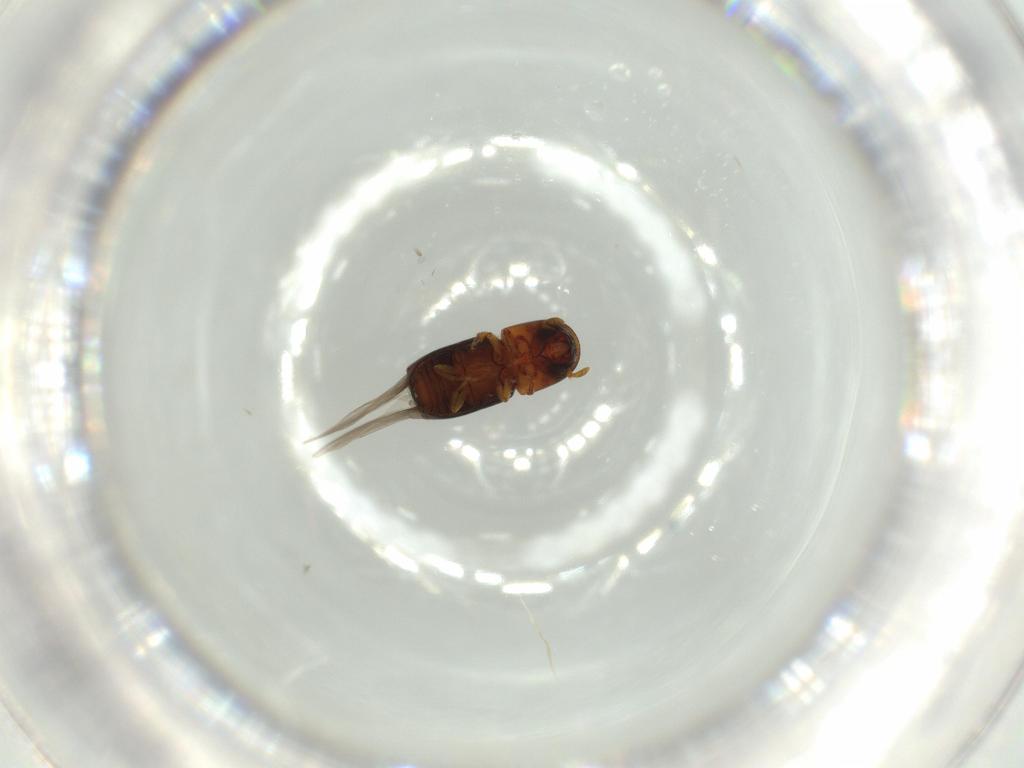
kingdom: Animalia
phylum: Arthropoda
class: Insecta
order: Coleoptera
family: Curculionidae
